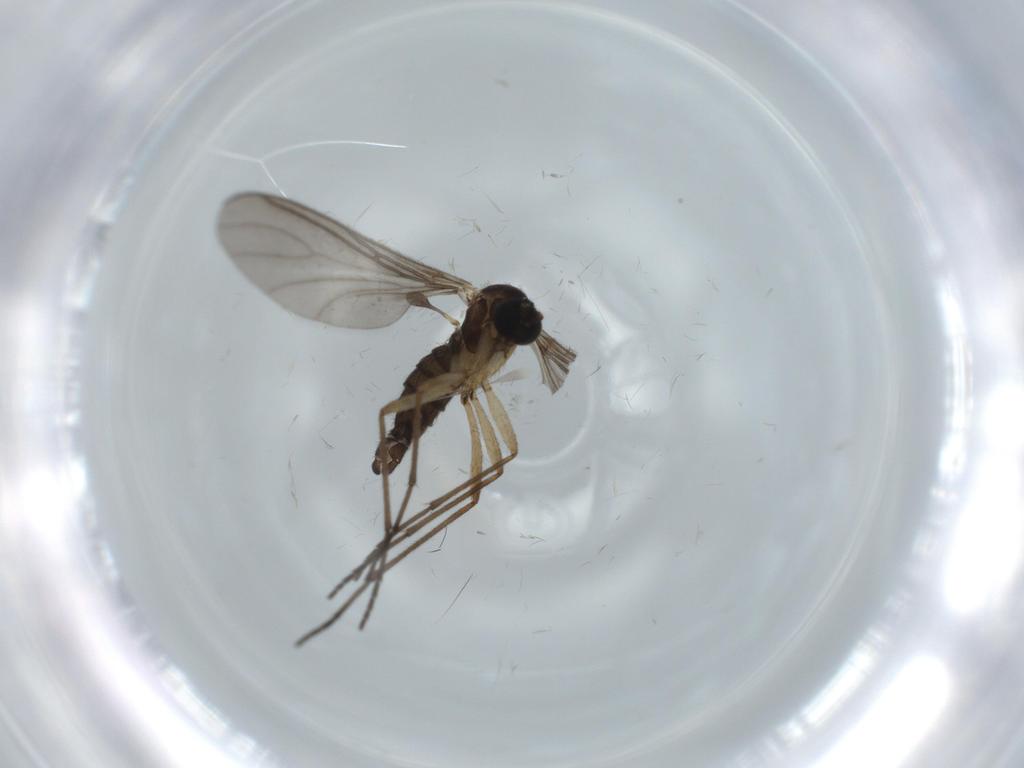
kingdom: Animalia
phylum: Arthropoda
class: Insecta
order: Diptera
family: Sciaridae
